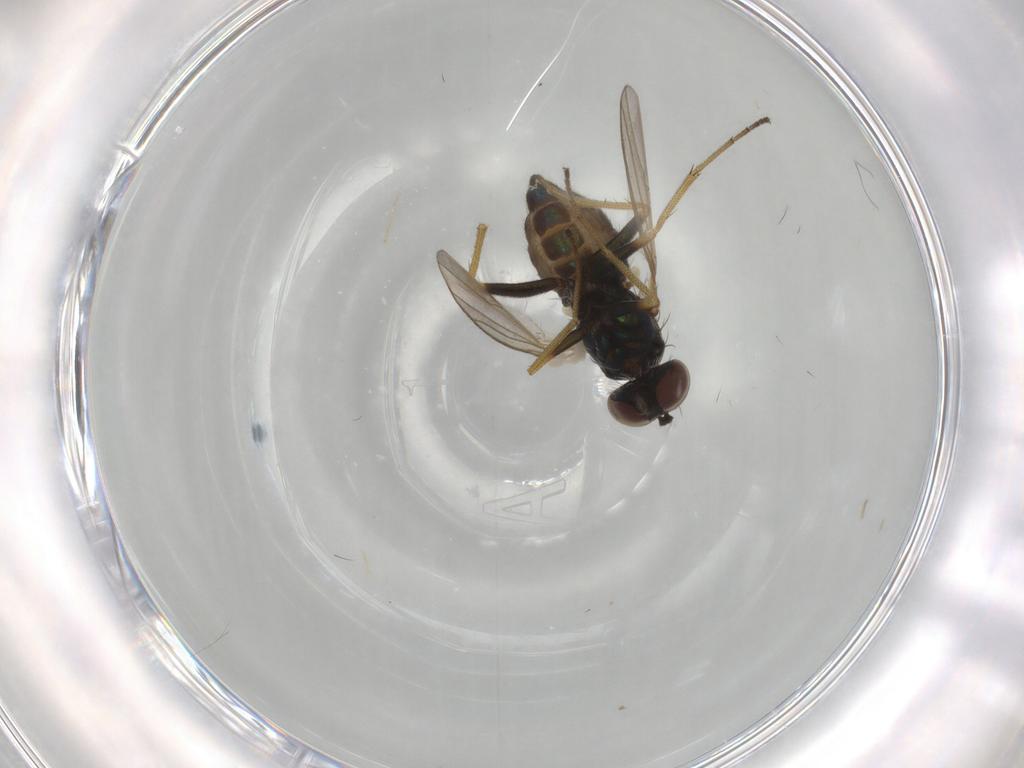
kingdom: Animalia
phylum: Arthropoda
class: Insecta
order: Diptera
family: Dolichopodidae
